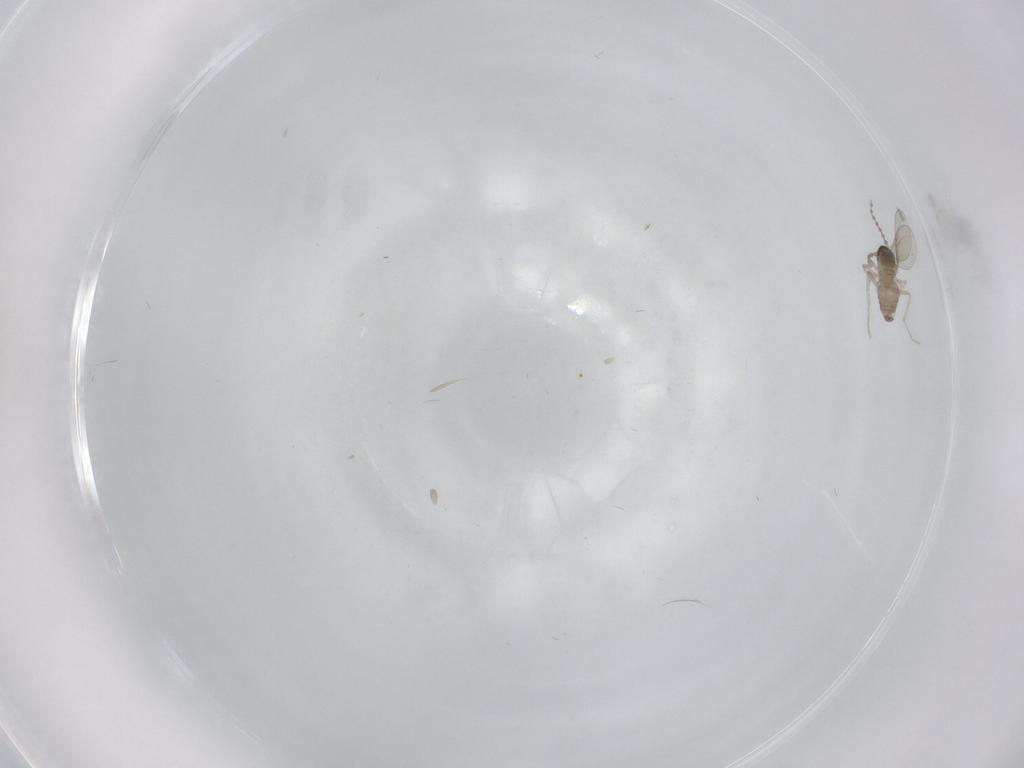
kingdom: Animalia
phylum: Arthropoda
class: Insecta
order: Diptera
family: Cecidomyiidae
